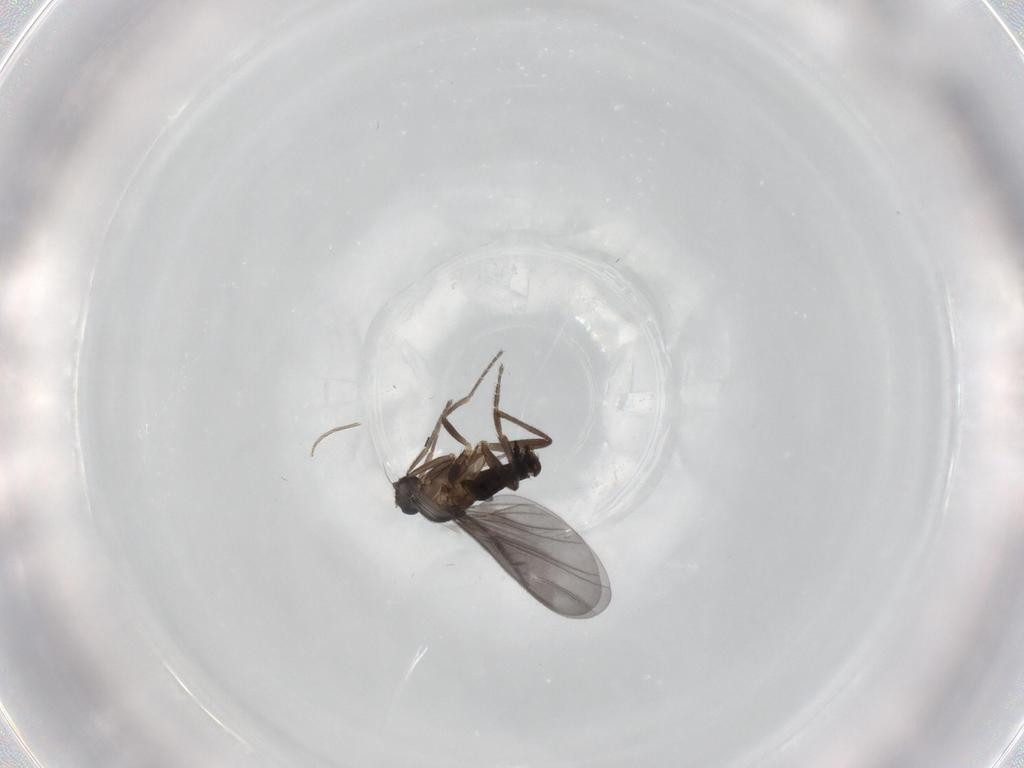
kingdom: Animalia
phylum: Arthropoda
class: Insecta
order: Diptera
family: Phoridae
